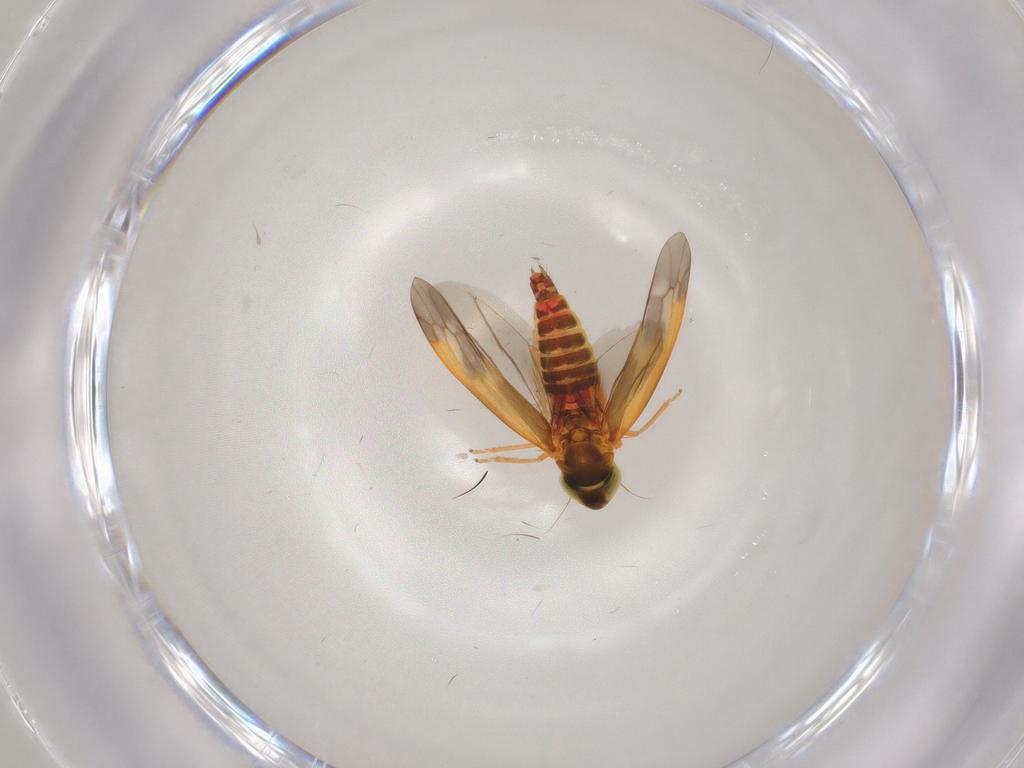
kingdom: Animalia
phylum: Arthropoda
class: Insecta
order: Hemiptera
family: Cicadellidae
